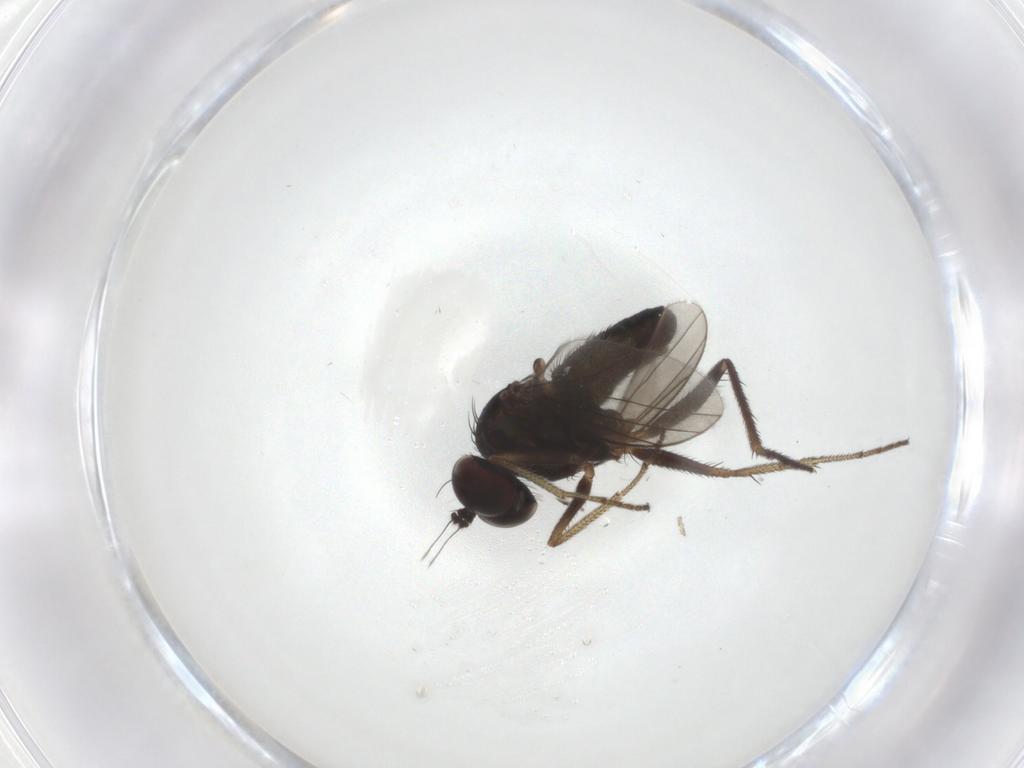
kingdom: Animalia
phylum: Arthropoda
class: Insecta
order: Diptera
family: Dolichopodidae
